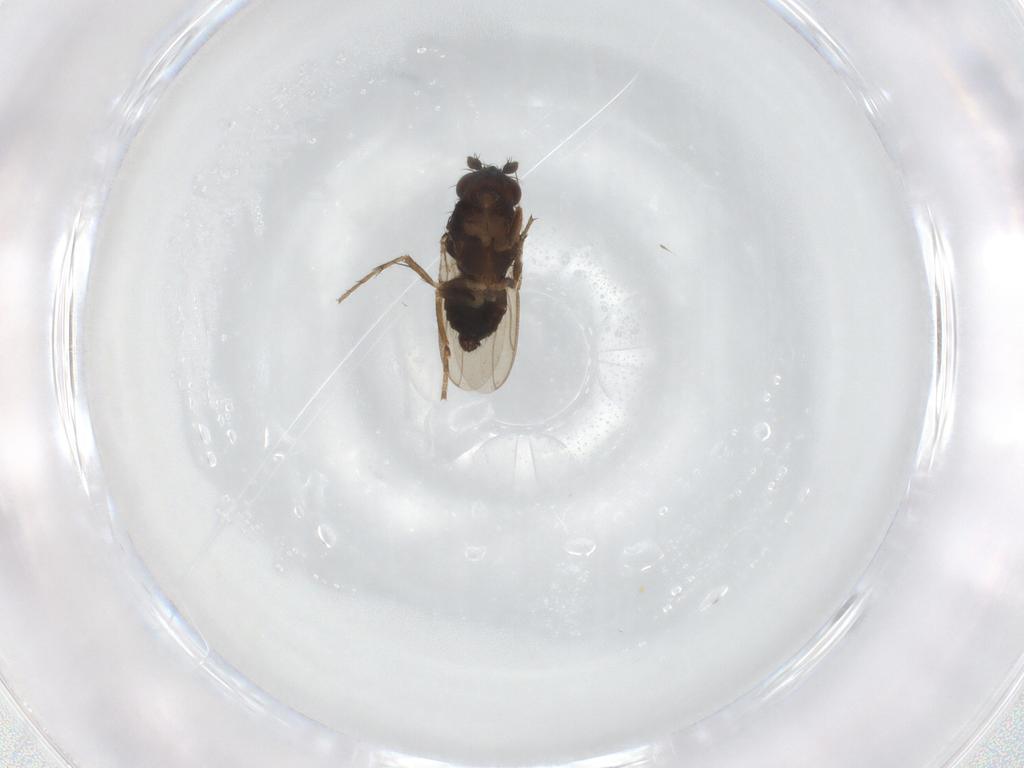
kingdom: Animalia
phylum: Arthropoda
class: Insecta
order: Diptera
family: Sphaeroceridae
